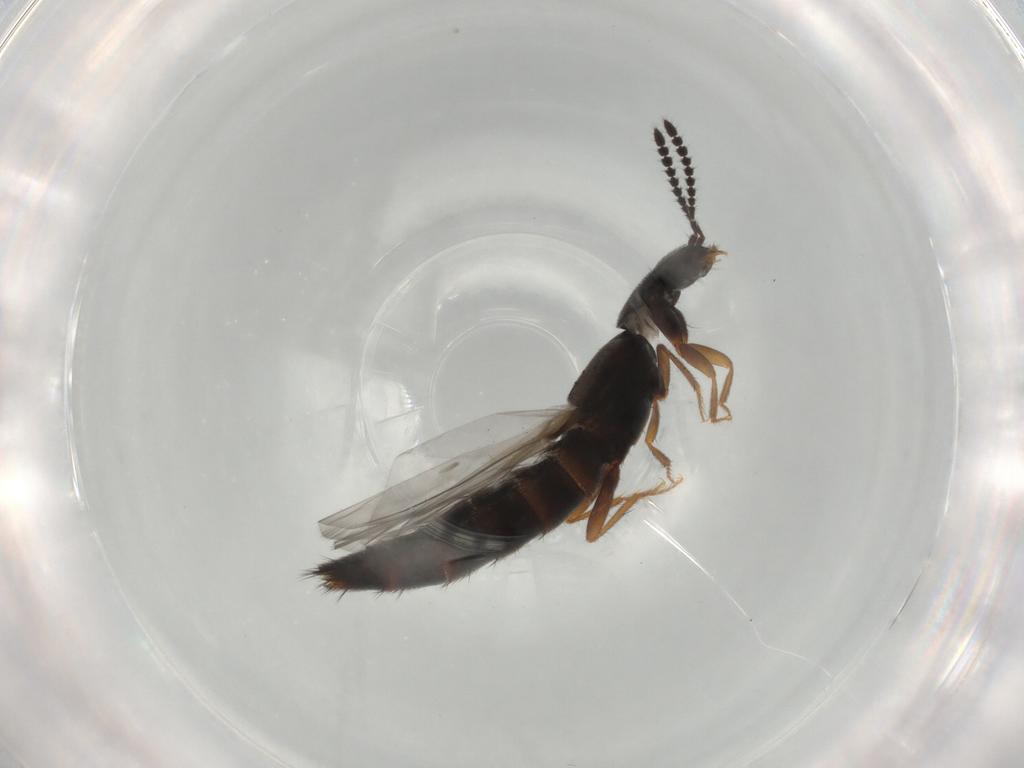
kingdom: Animalia
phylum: Arthropoda
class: Insecta
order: Coleoptera
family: Staphylinidae
